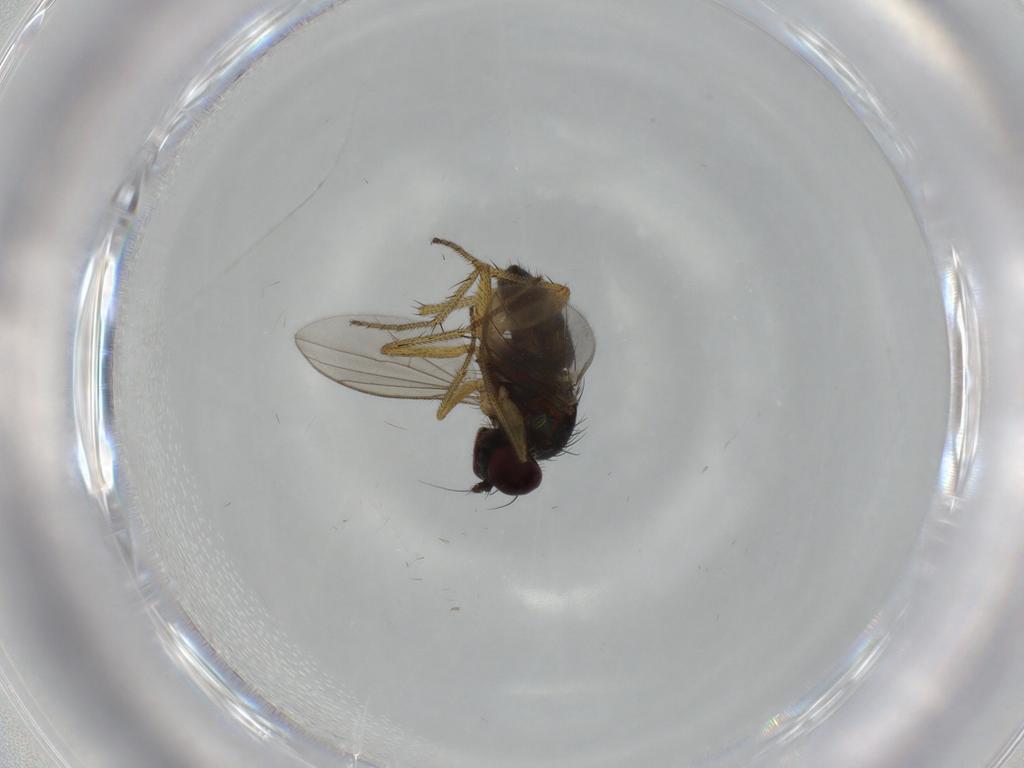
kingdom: Animalia
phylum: Arthropoda
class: Insecta
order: Diptera
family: Dolichopodidae
